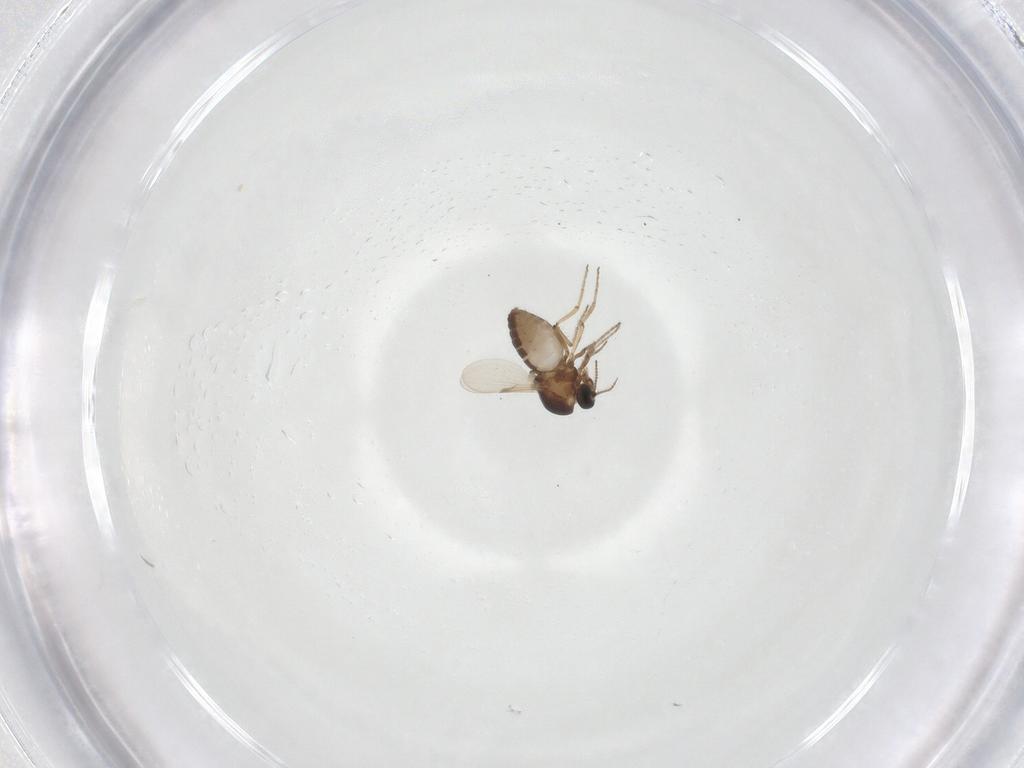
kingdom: Animalia
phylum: Arthropoda
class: Insecta
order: Diptera
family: Ceratopogonidae
